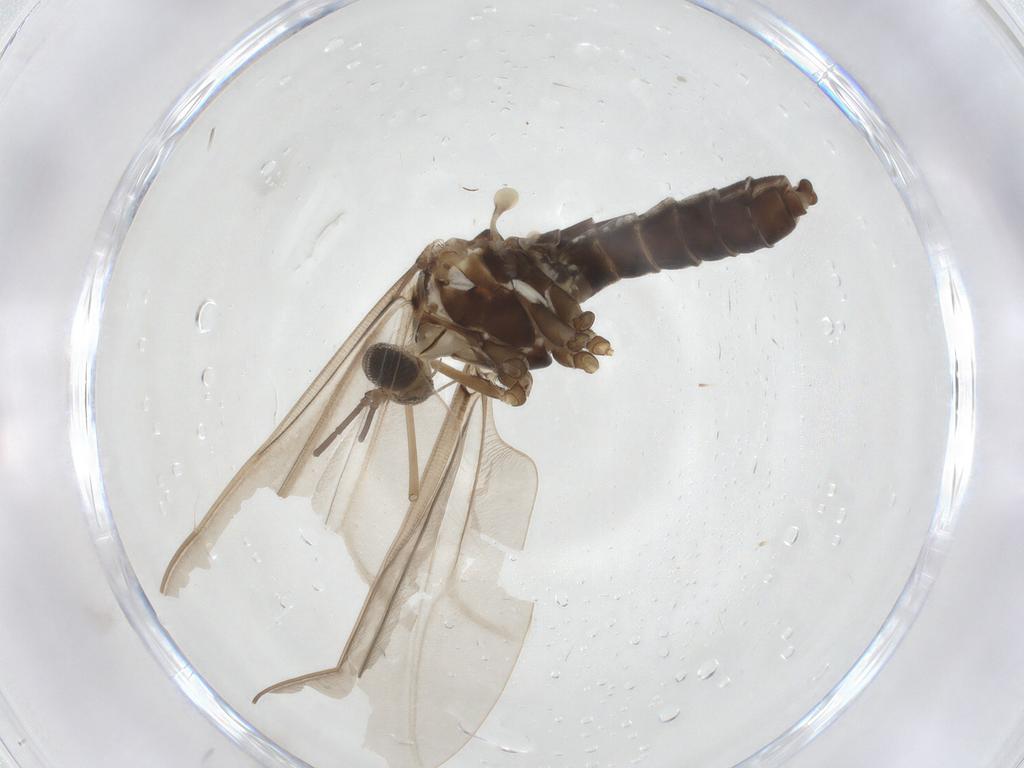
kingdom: Animalia
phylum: Arthropoda
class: Insecta
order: Diptera
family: Cecidomyiidae
